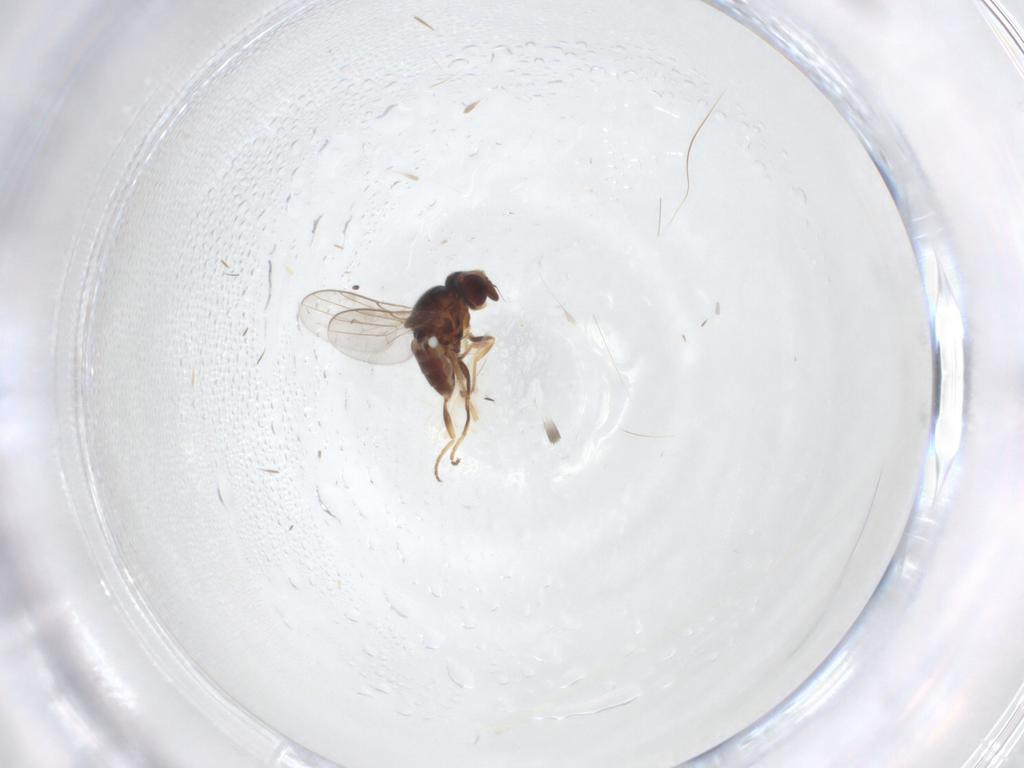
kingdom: Animalia
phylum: Arthropoda
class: Insecta
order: Diptera
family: Chloropidae
